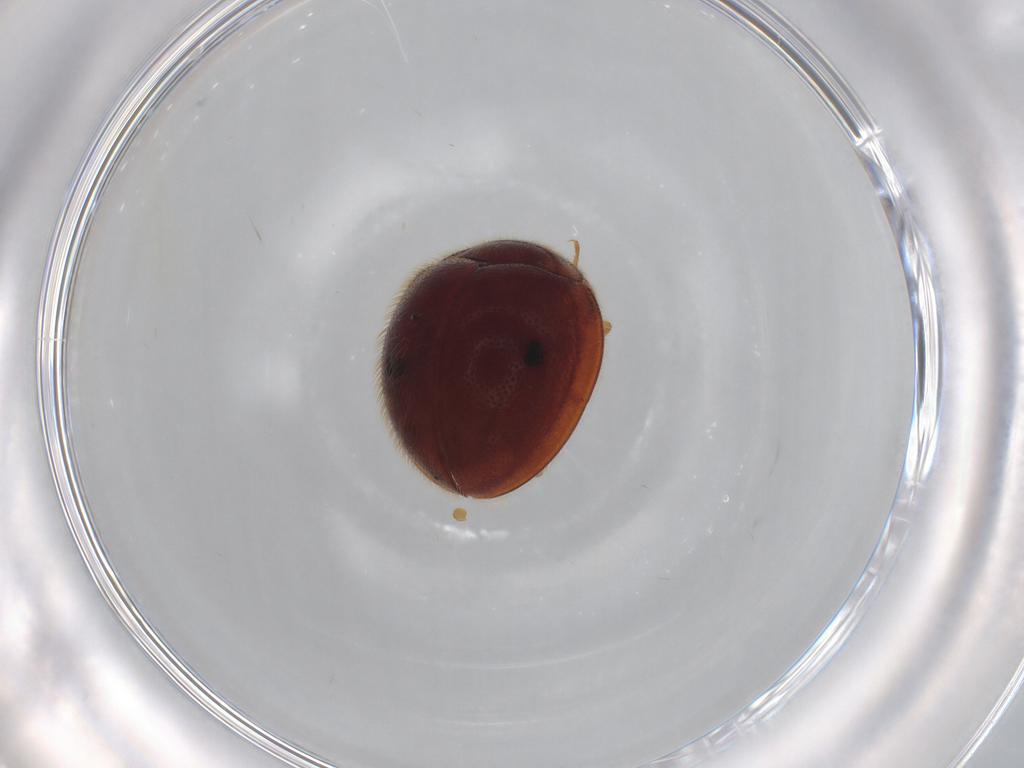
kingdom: Animalia
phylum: Arthropoda
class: Insecta
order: Coleoptera
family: Anamorphidae
